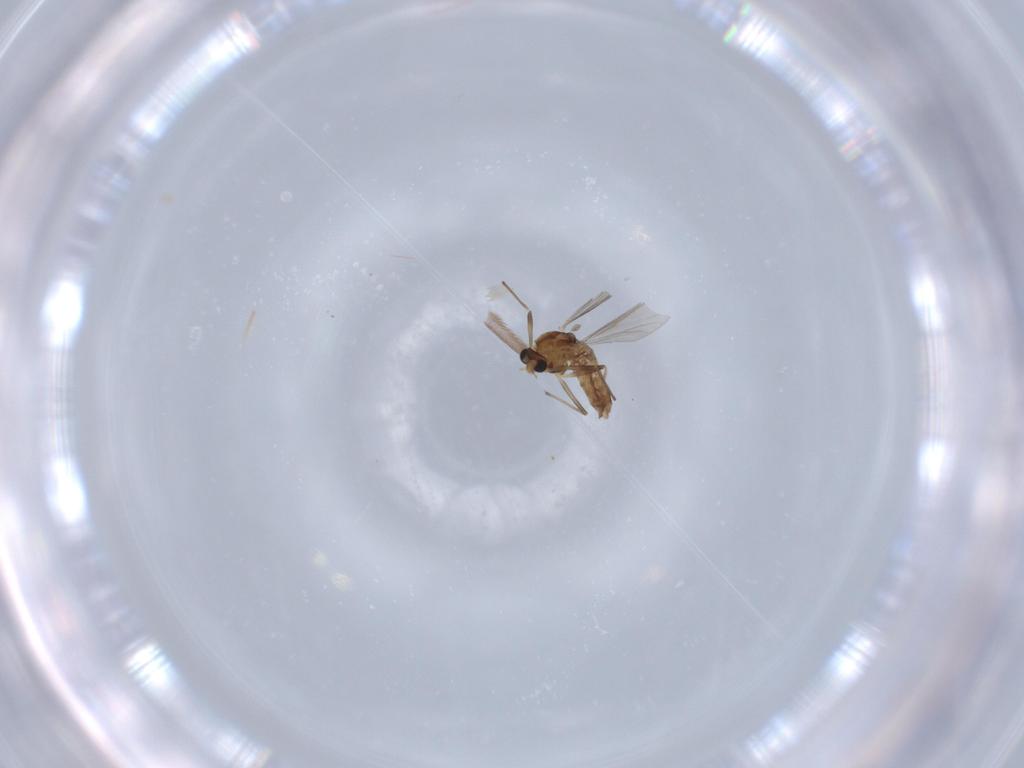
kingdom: Animalia
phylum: Arthropoda
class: Insecta
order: Diptera
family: Chironomidae
